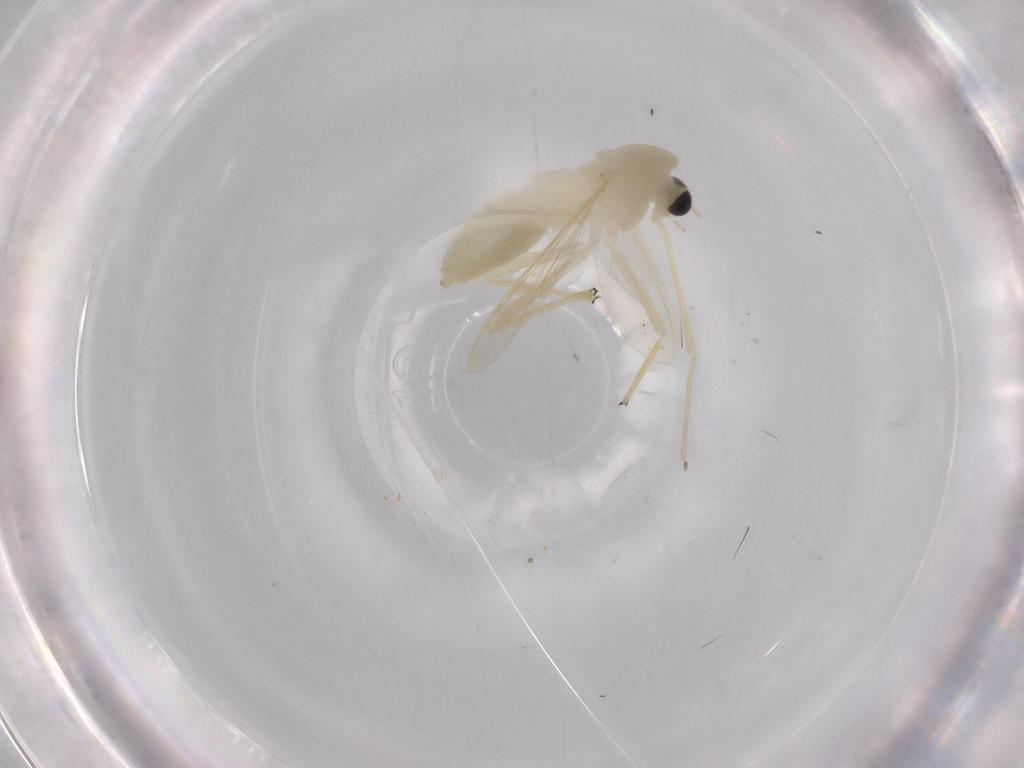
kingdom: Animalia
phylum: Arthropoda
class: Insecta
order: Diptera
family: Chironomidae
